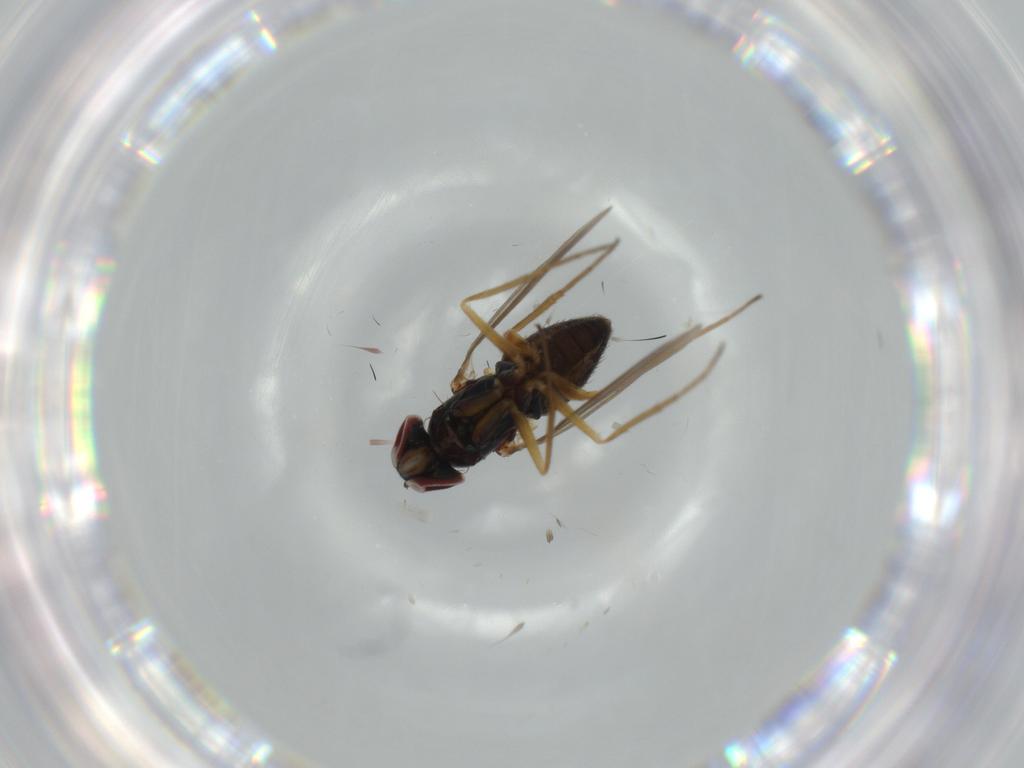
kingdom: Animalia
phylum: Arthropoda
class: Insecta
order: Diptera
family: Dolichopodidae
